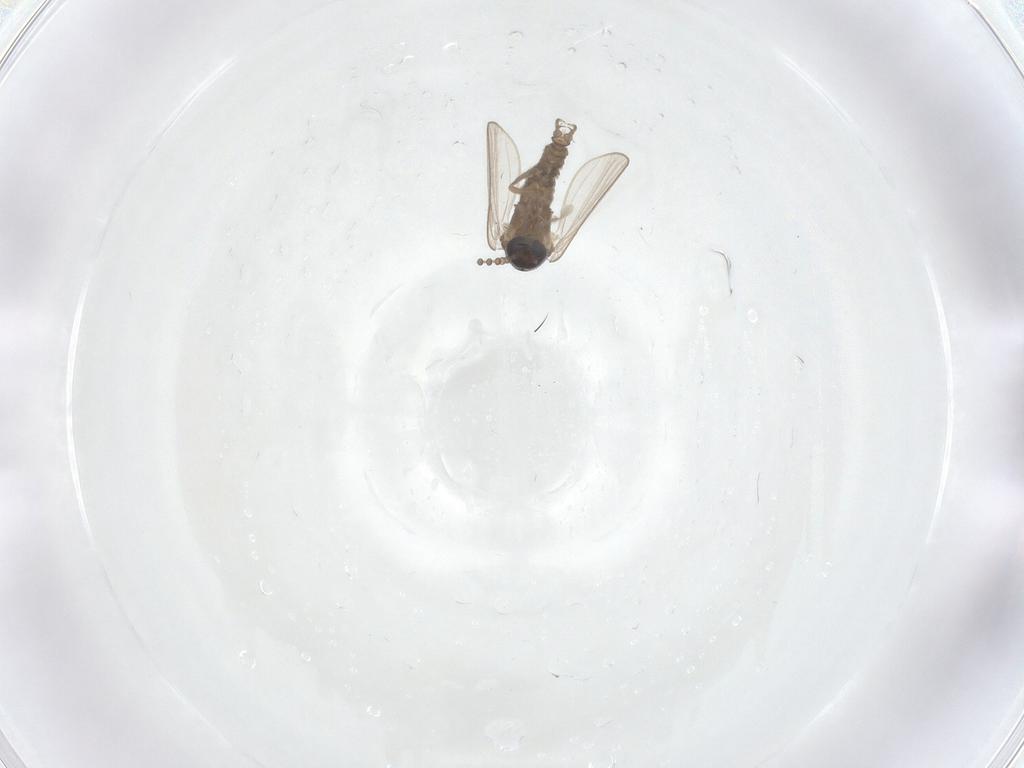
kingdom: Animalia
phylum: Arthropoda
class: Insecta
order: Diptera
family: Psychodidae
